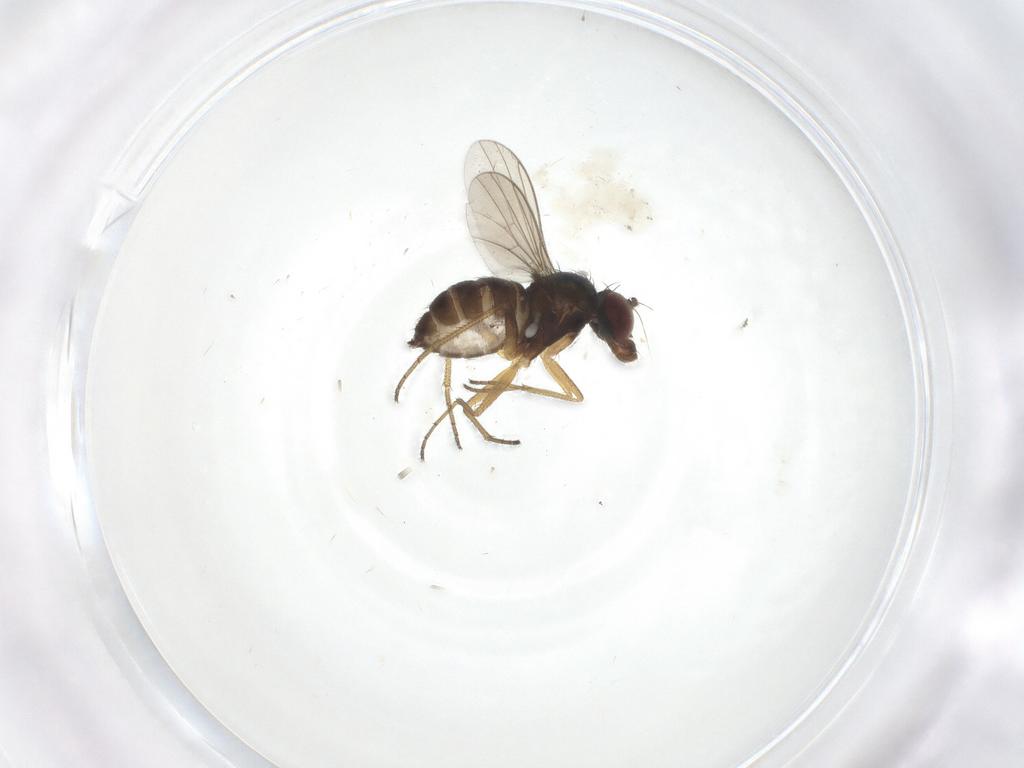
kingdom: Animalia
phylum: Arthropoda
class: Insecta
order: Diptera
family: Dolichopodidae
